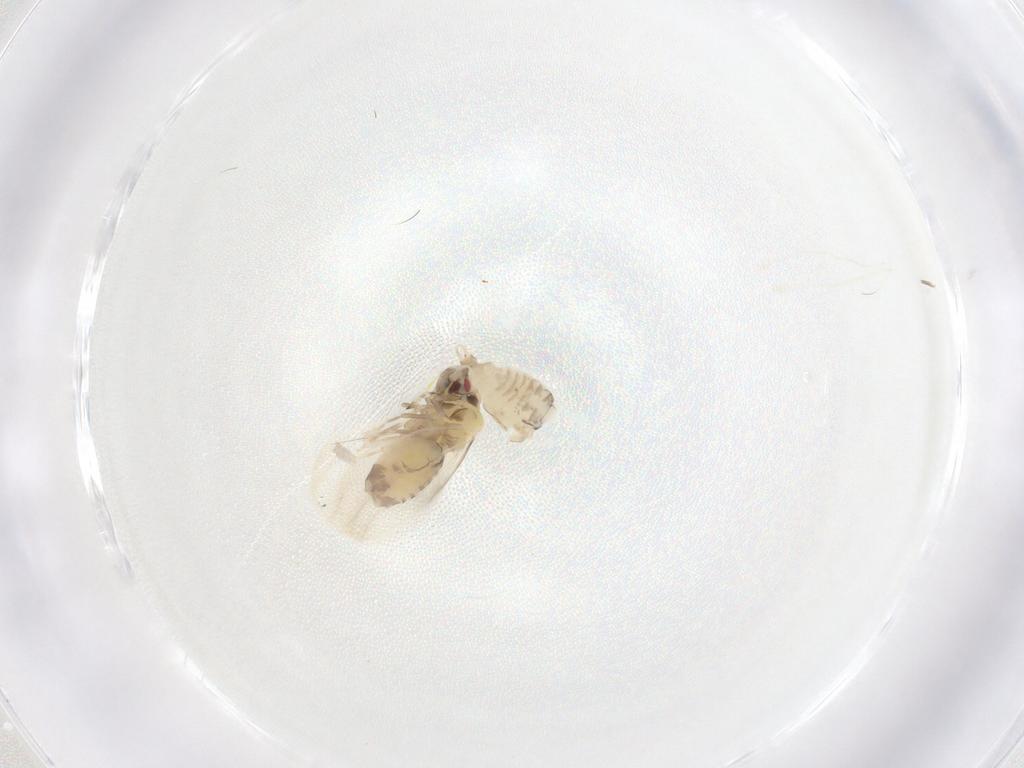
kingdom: Animalia
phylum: Arthropoda
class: Insecta
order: Hemiptera
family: Aleyrodidae
